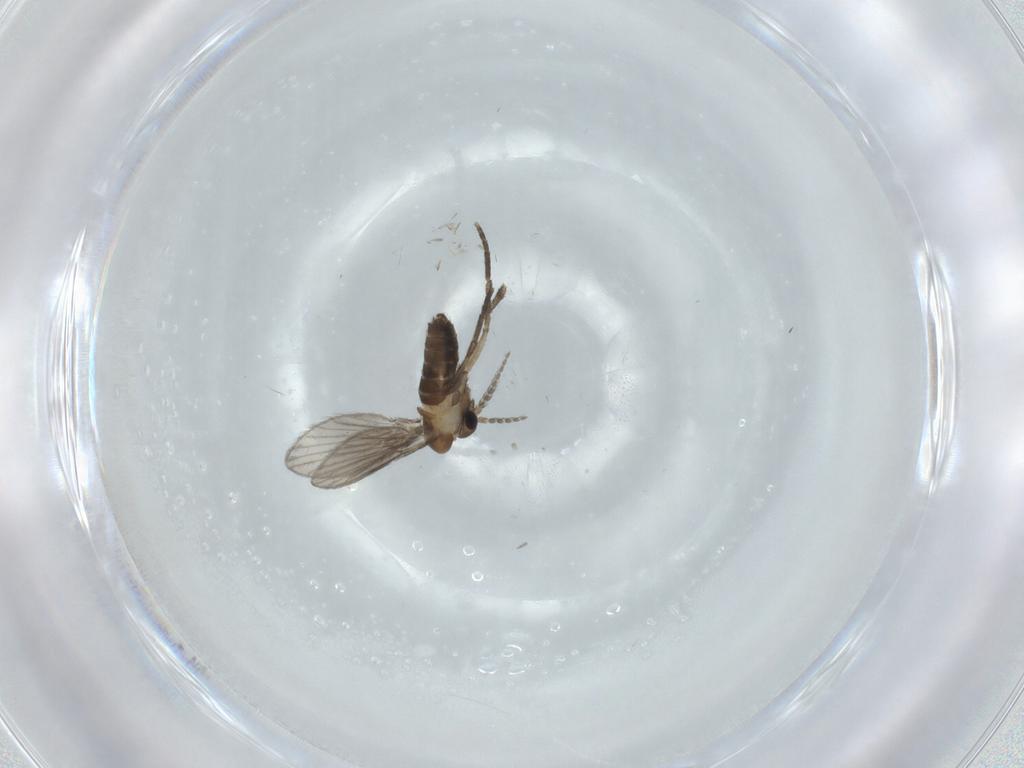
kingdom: Animalia
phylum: Arthropoda
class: Insecta
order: Diptera
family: Psychodidae
